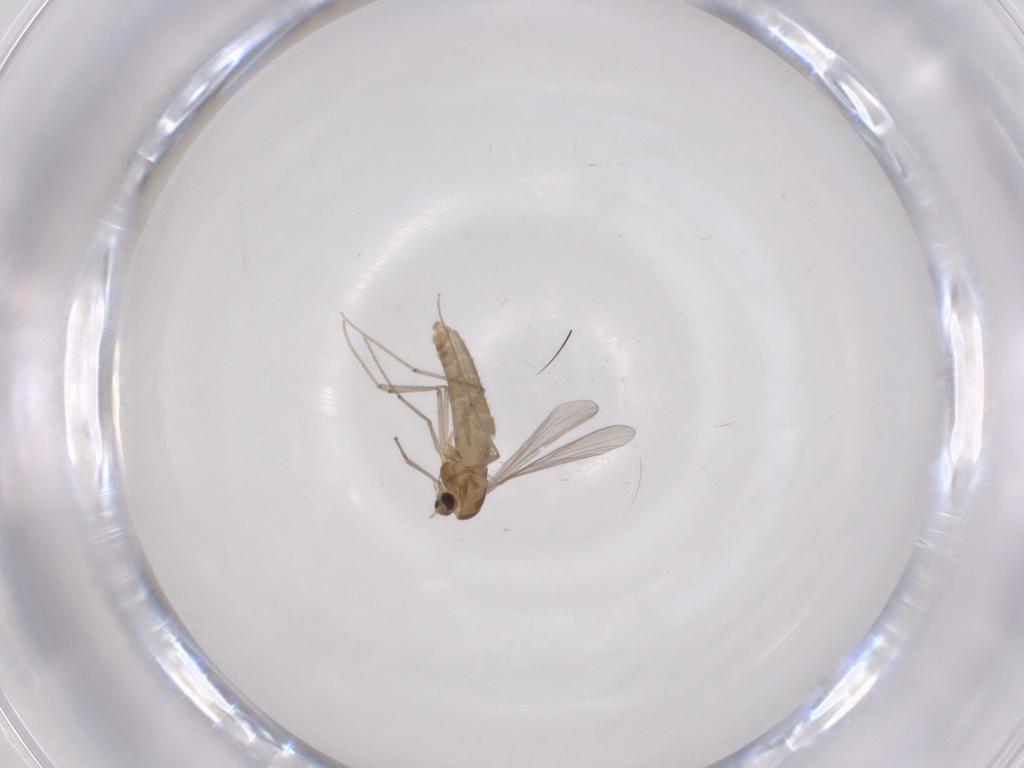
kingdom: Animalia
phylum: Arthropoda
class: Insecta
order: Diptera
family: Cecidomyiidae
